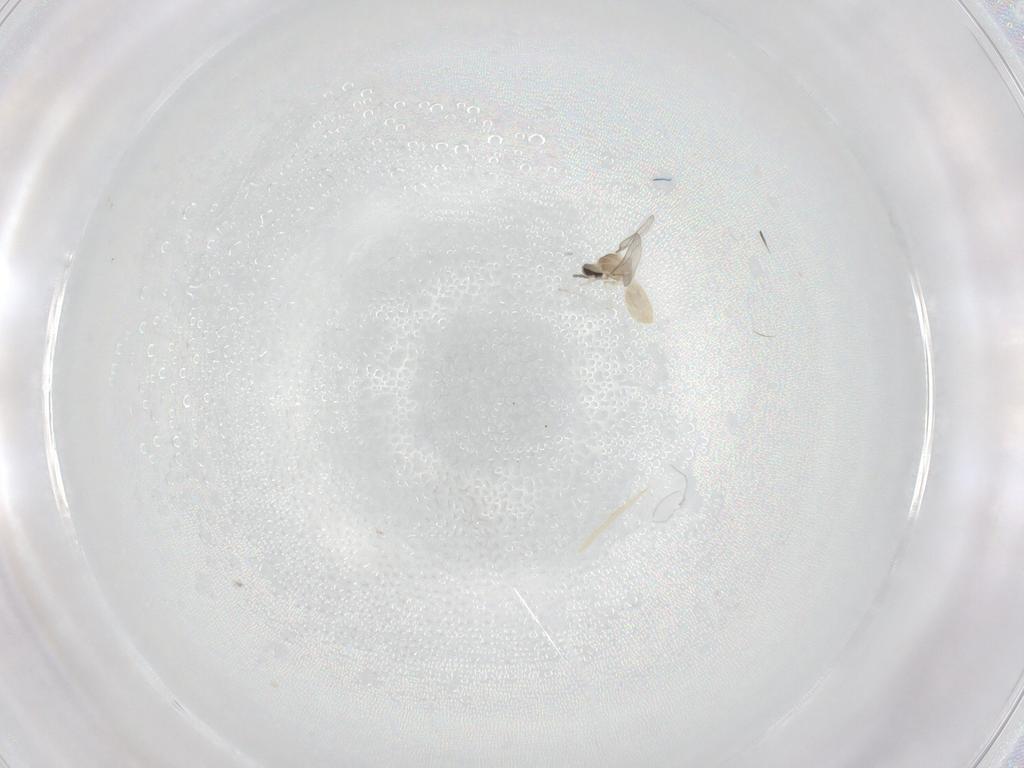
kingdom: Animalia
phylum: Arthropoda
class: Insecta
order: Diptera
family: Cecidomyiidae
